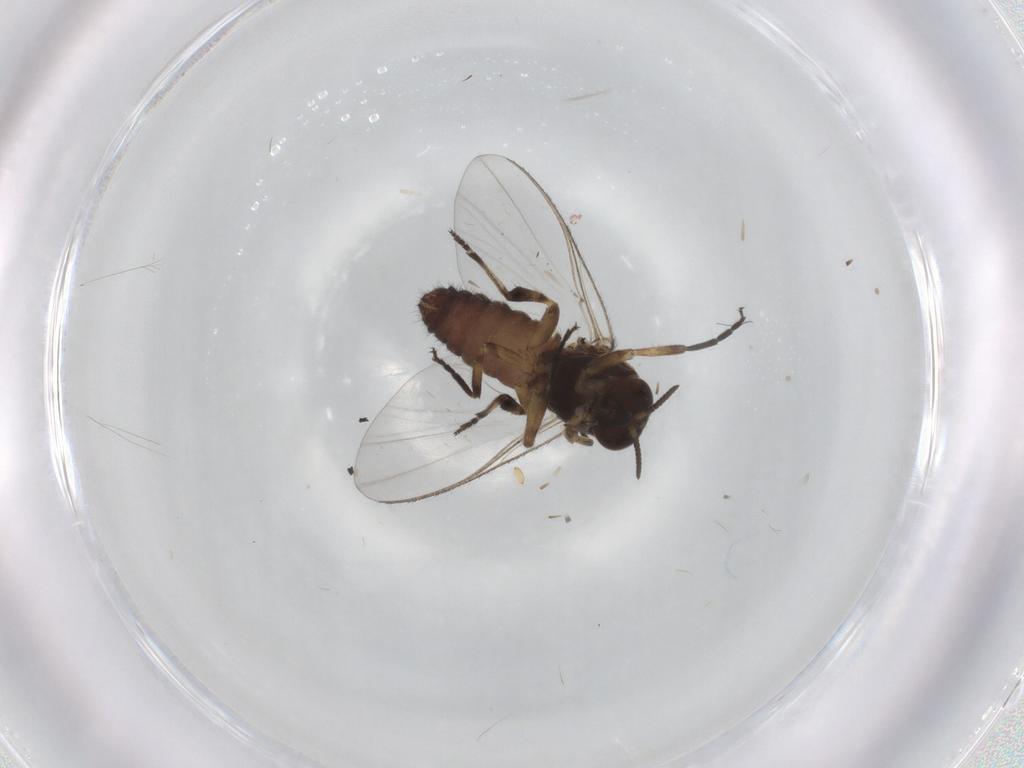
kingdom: Animalia
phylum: Arthropoda
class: Insecta
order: Diptera
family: Simuliidae
